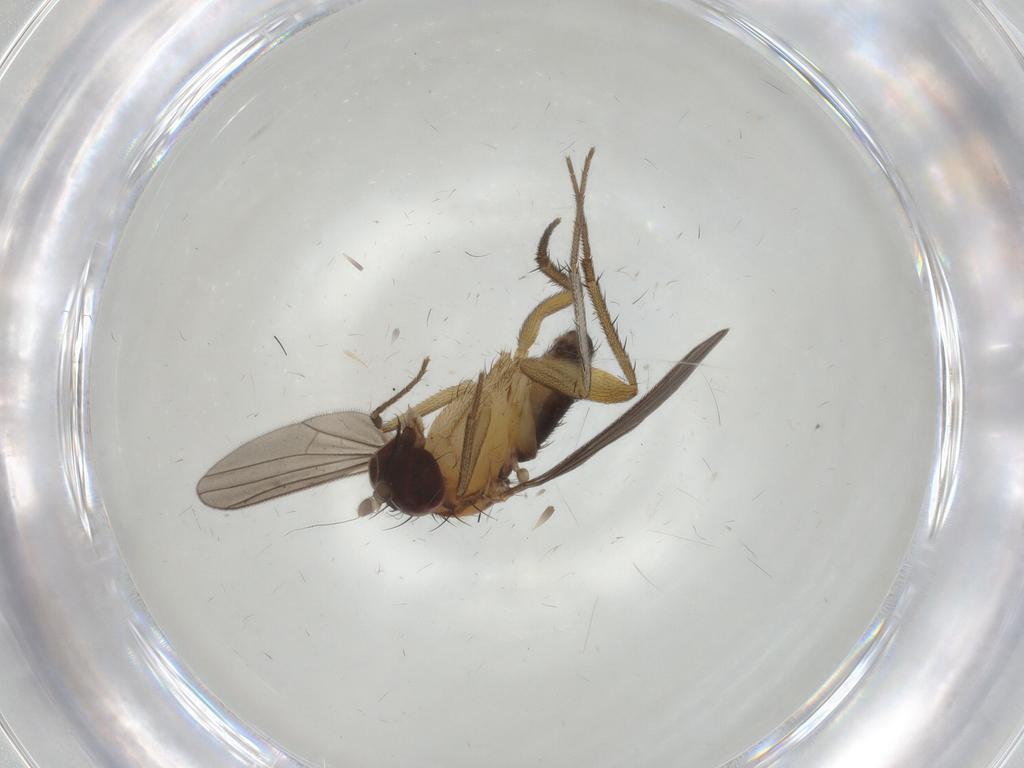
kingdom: Animalia
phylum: Arthropoda
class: Insecta
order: Diptera
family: Dolichopodidae
